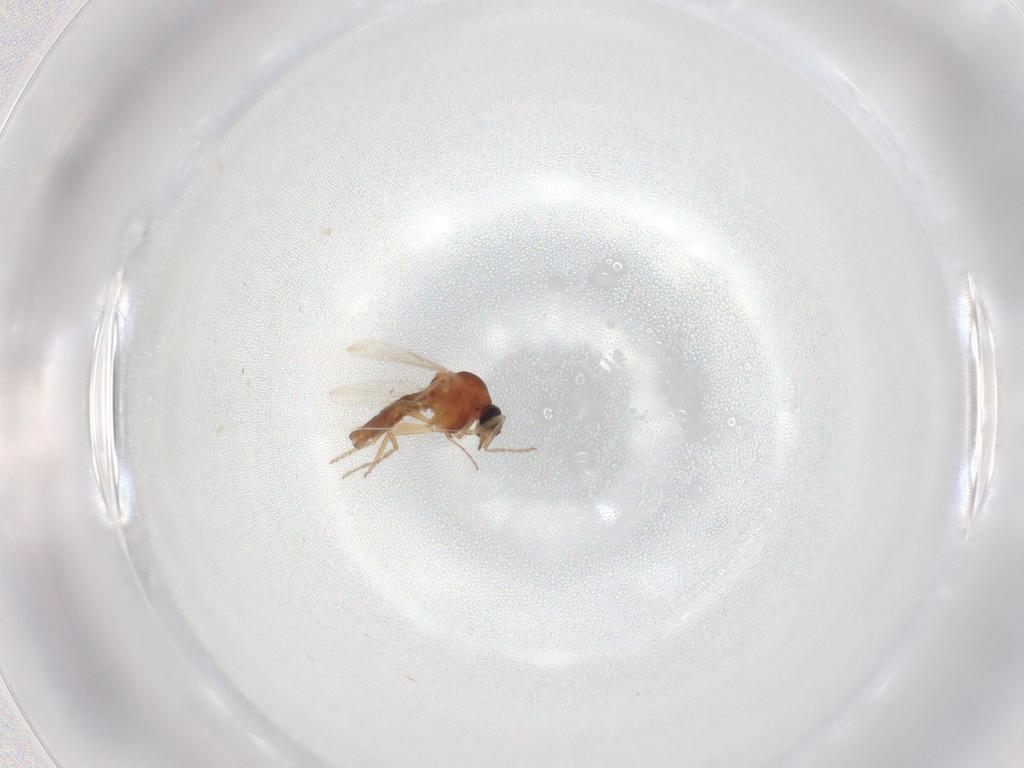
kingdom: Animalia
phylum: Arthropoda
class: Insecta
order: Diptera
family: Ceratopogonidae
